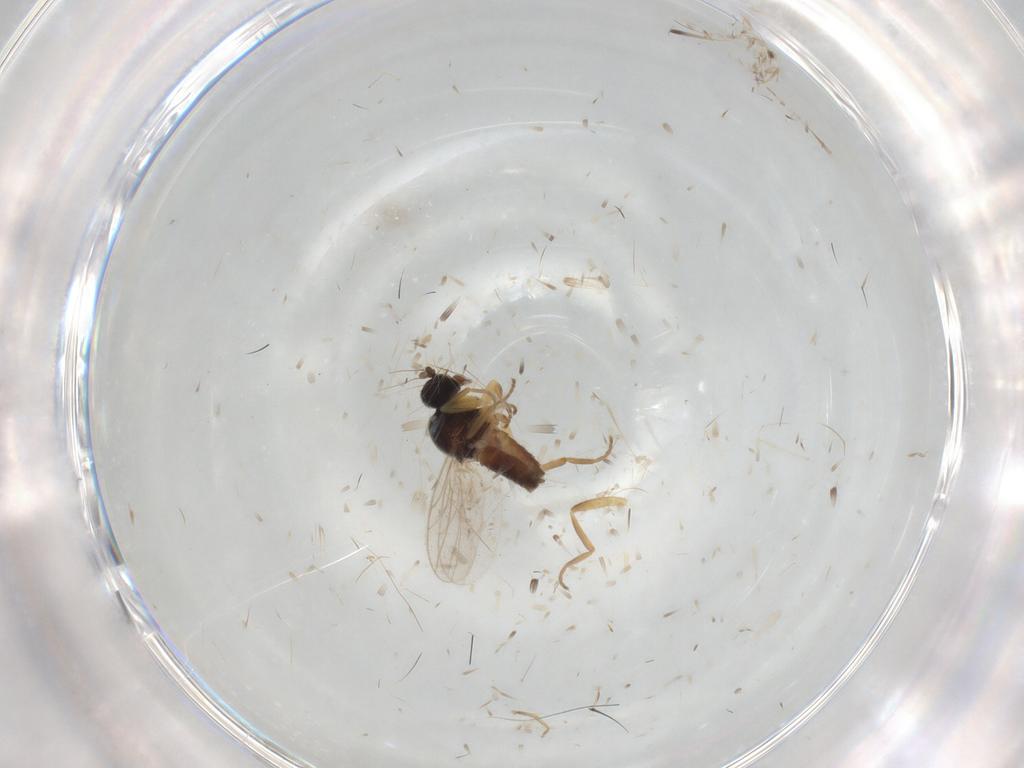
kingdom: Animalia
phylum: Arthropoda
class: Insecta
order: Diptera
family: Hybotidae
